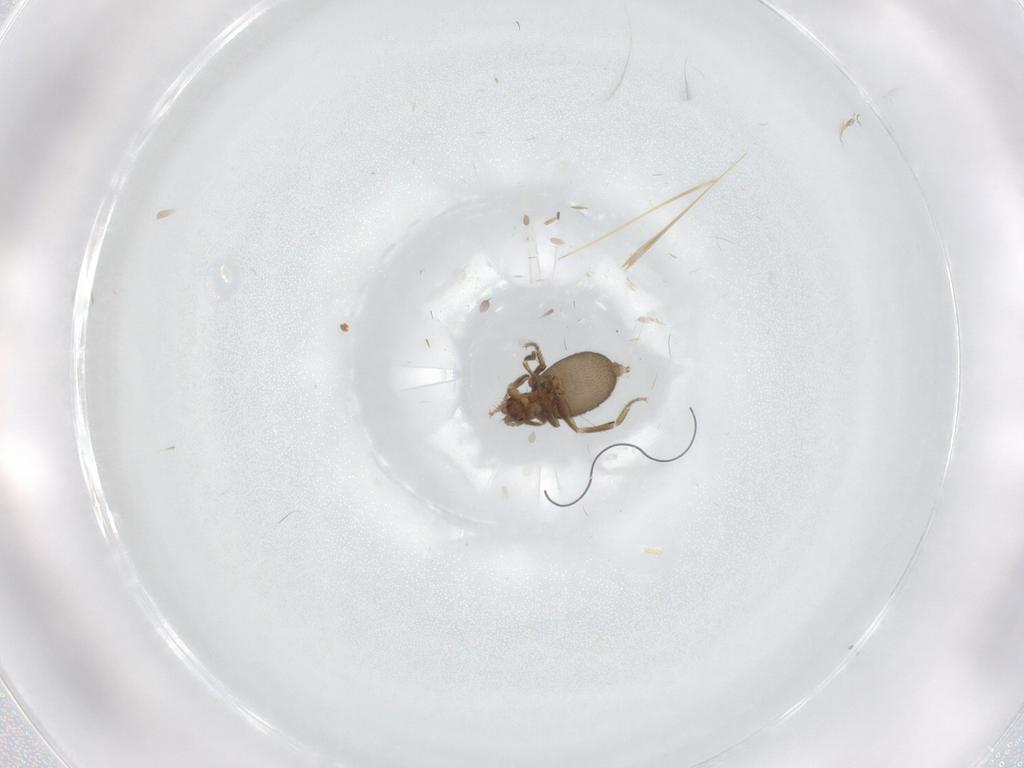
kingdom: Animalia
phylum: Arthropoda
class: Insecta
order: Diptera
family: Phoridae
